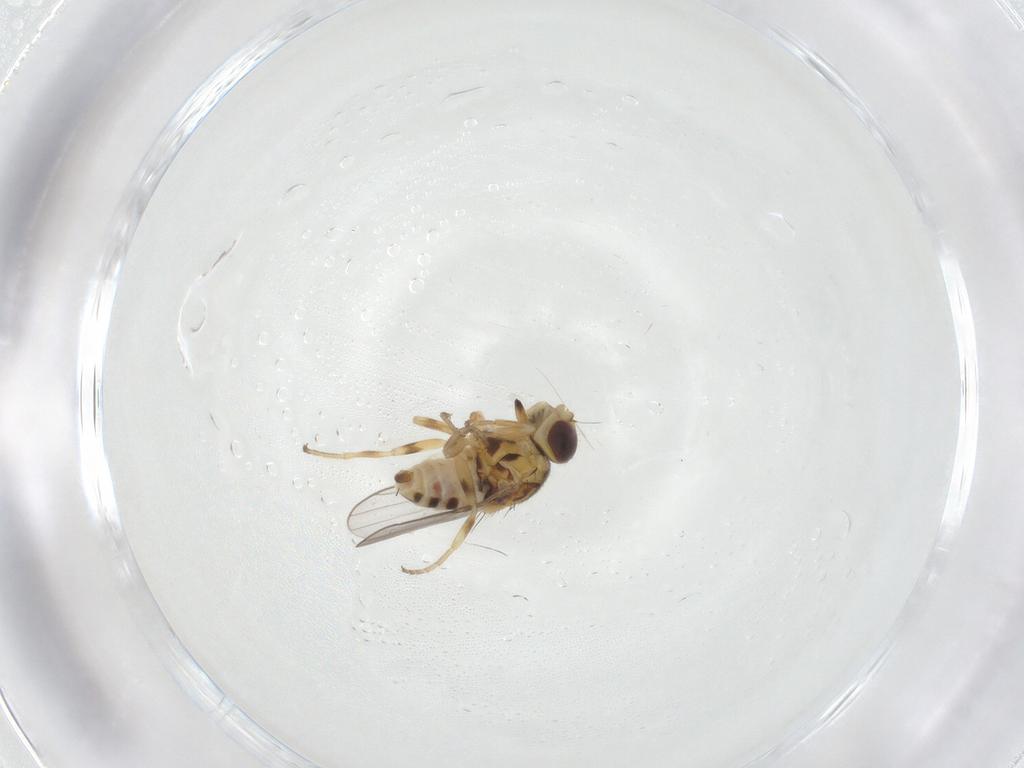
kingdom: Animalia
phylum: Arthropoda
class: Insecta
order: Diptera
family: Chloropidae
